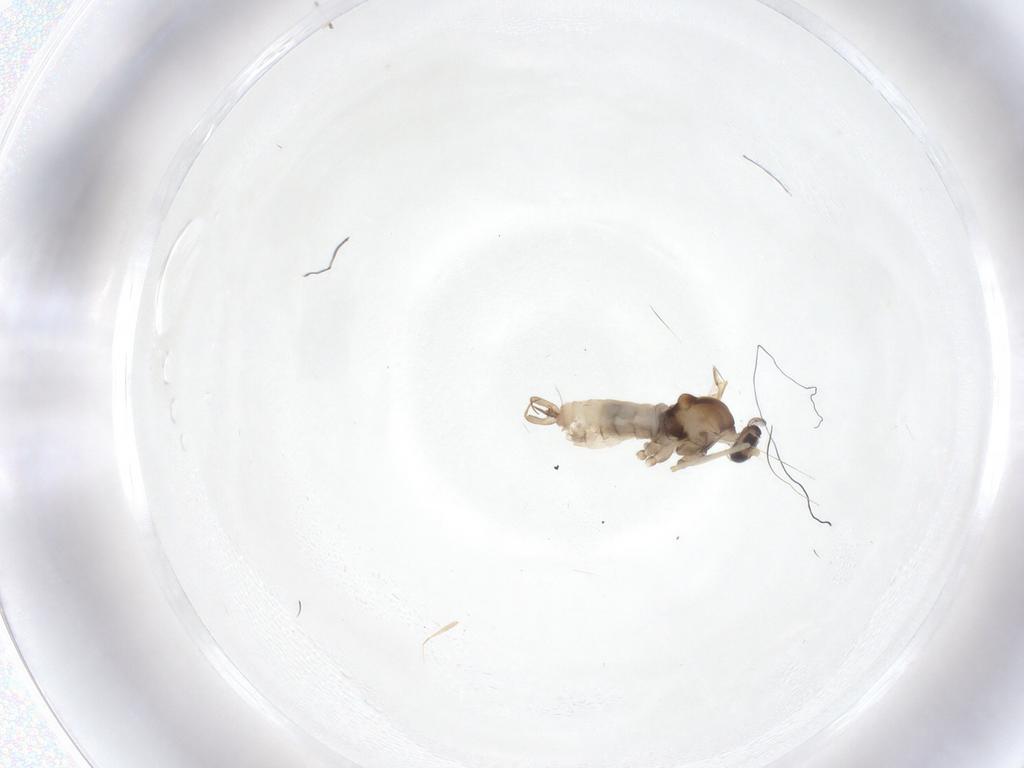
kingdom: Animalia
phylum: Arthropoda
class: Insecta
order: Diptera
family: Cecidomyiidae
